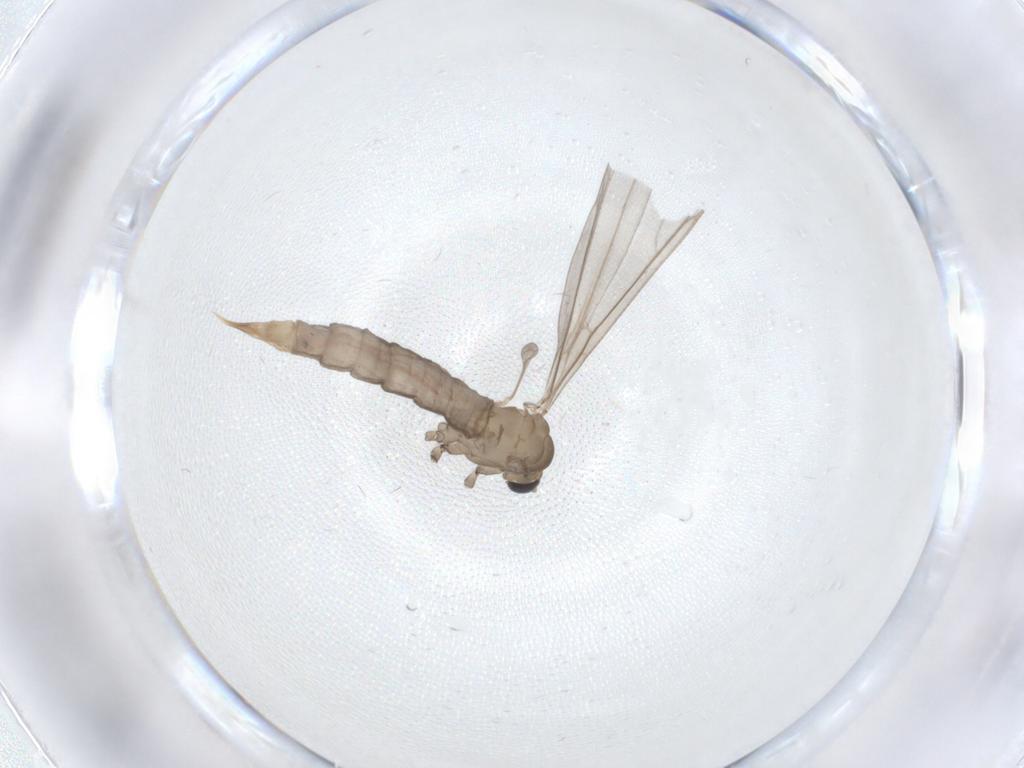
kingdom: Animalia
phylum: Arthropoda
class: Insecta
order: Diptera
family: Limoniidae
